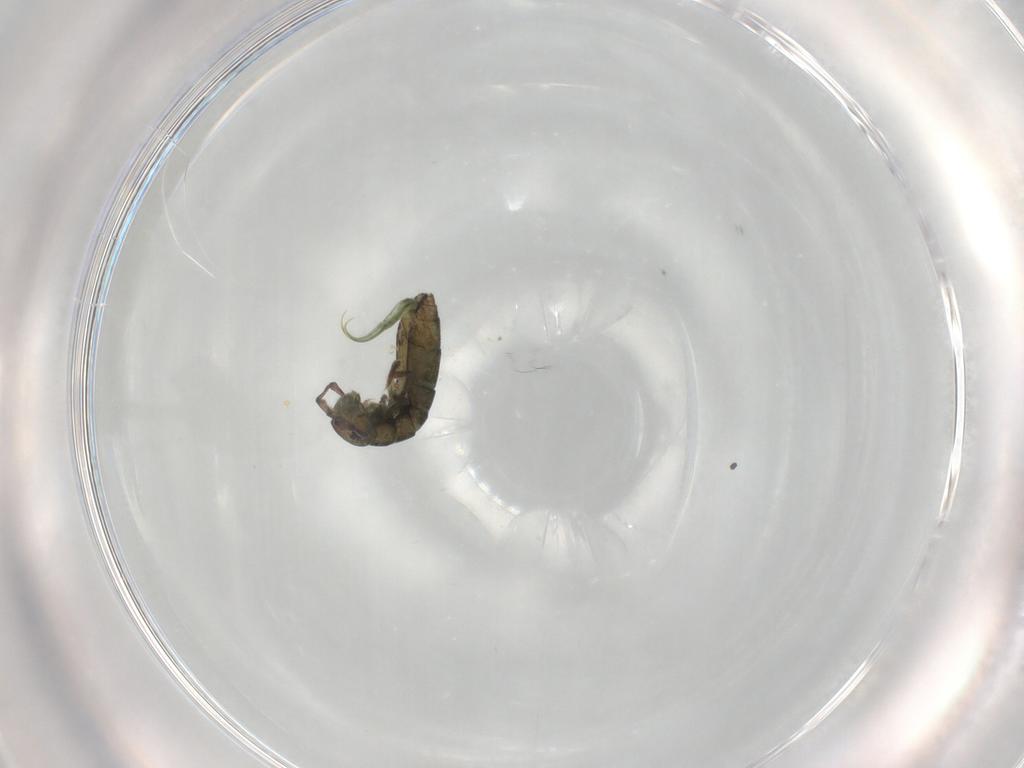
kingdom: Animalia
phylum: Arthropoda
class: Collembola
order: Entomobryomorpha
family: Isotomidae
